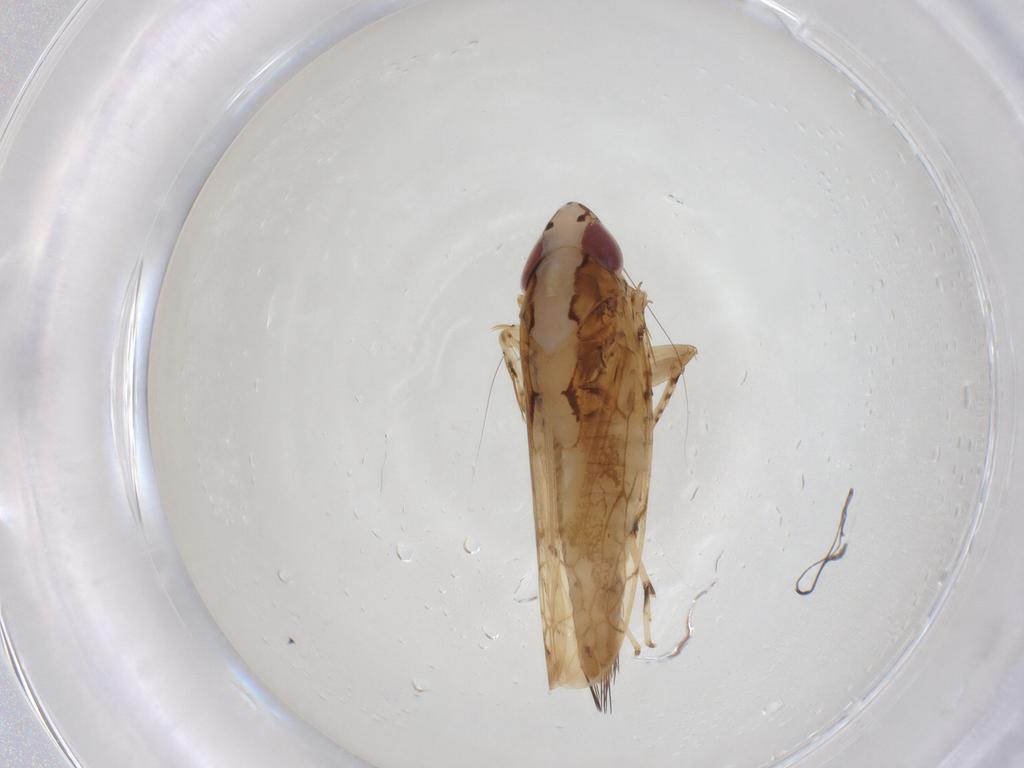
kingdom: Animalia
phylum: Arthropoda
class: Insecta
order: Hemiptera
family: Cicadellidae
